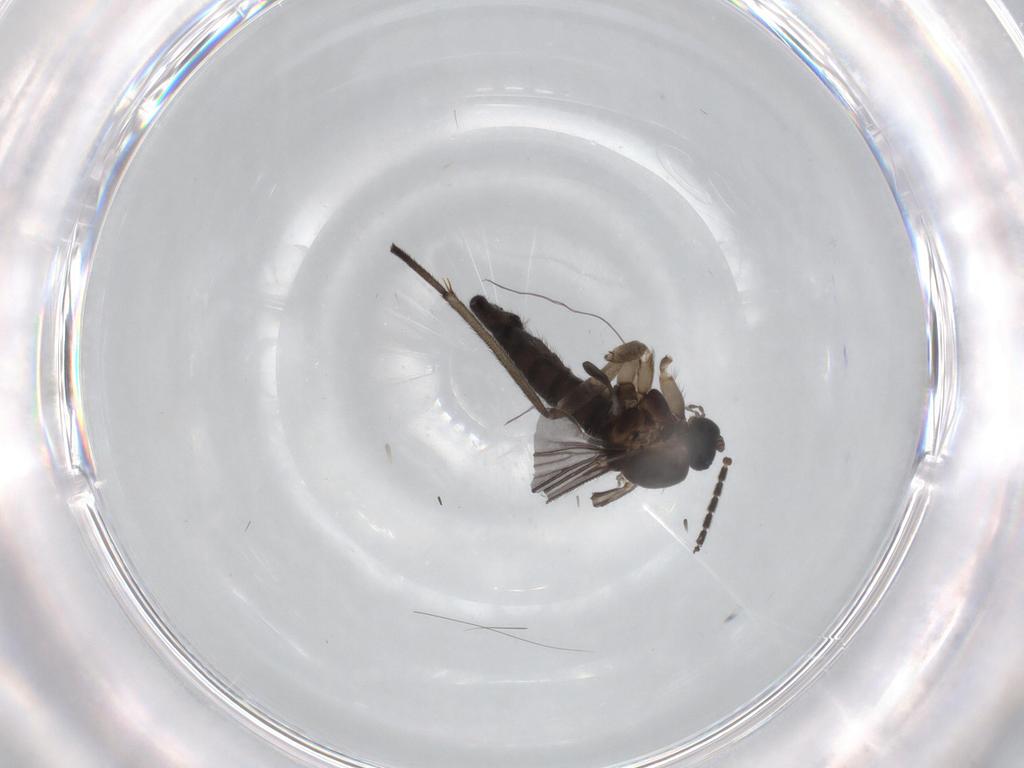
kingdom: Animalia
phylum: Arthropoda
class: Insecta
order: Diptera
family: Sciaridae
